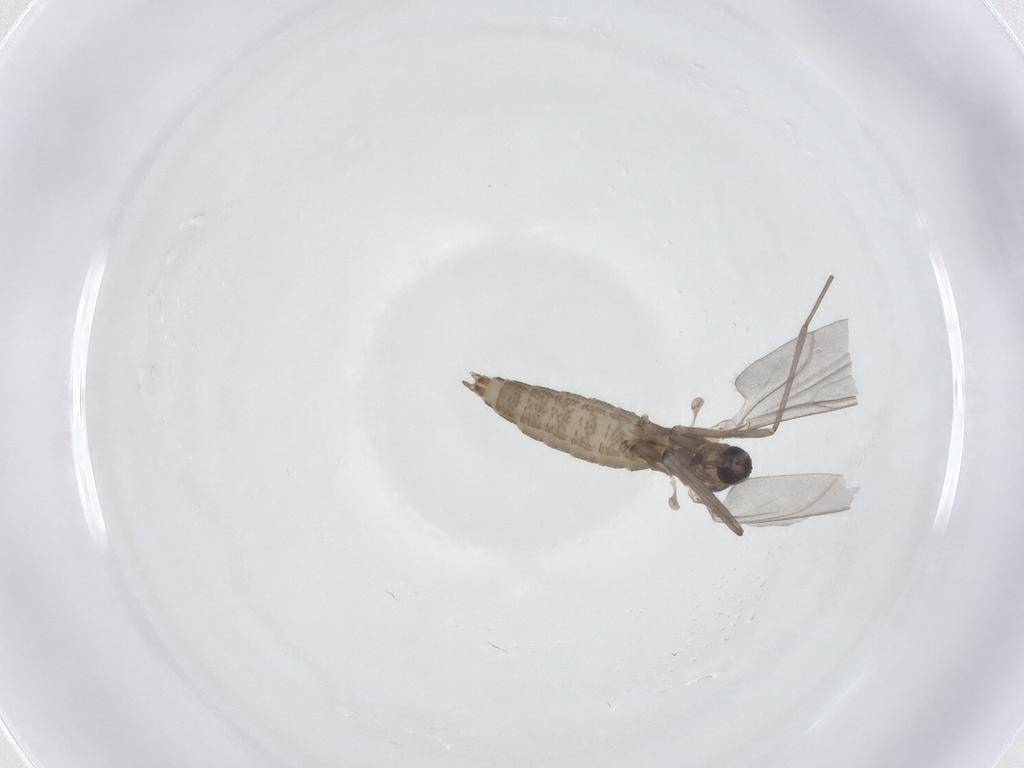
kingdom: Animalia
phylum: Arthropoda
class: Insecta
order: Diptera
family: Cecidomyiidae
